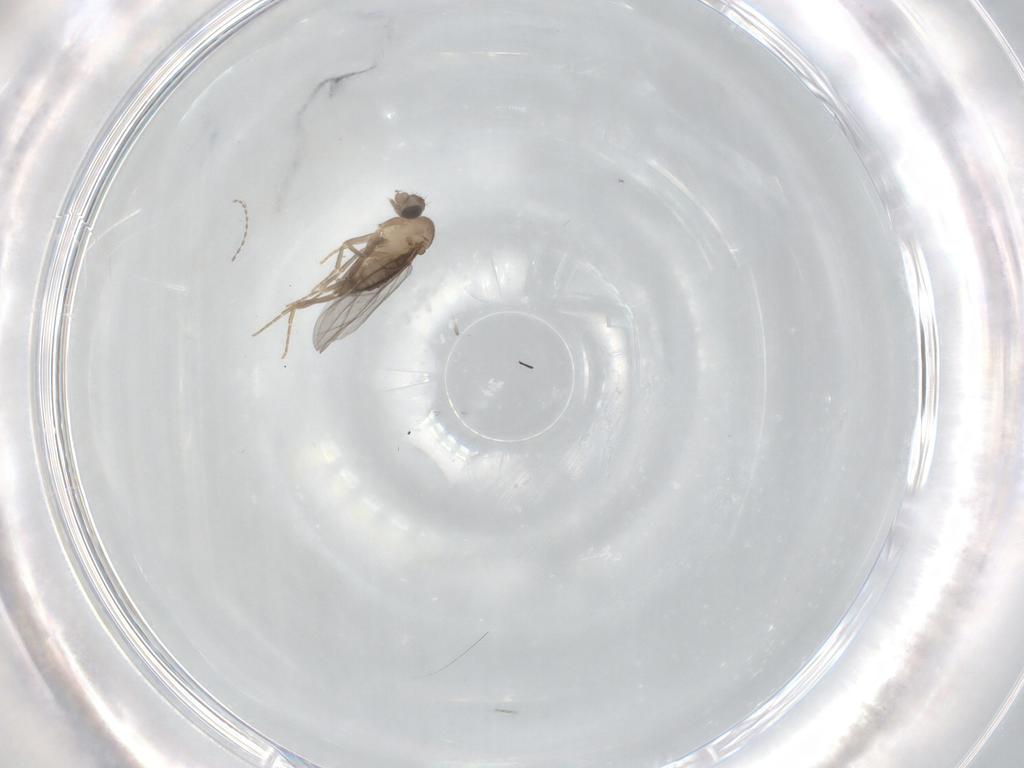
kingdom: Animalia
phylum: Arthropoda
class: Insecta
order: Diptera
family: Cecidomyiidae
